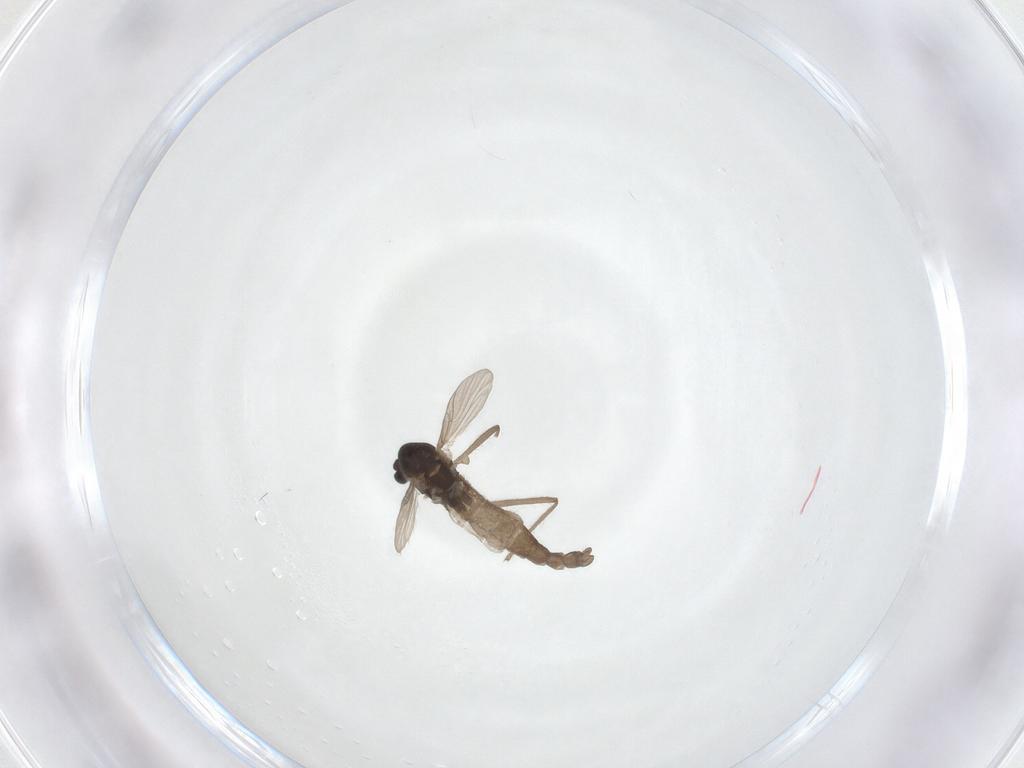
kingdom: Animalia
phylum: Arthropoda
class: Insecta
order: Diptera
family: Chironomidae
